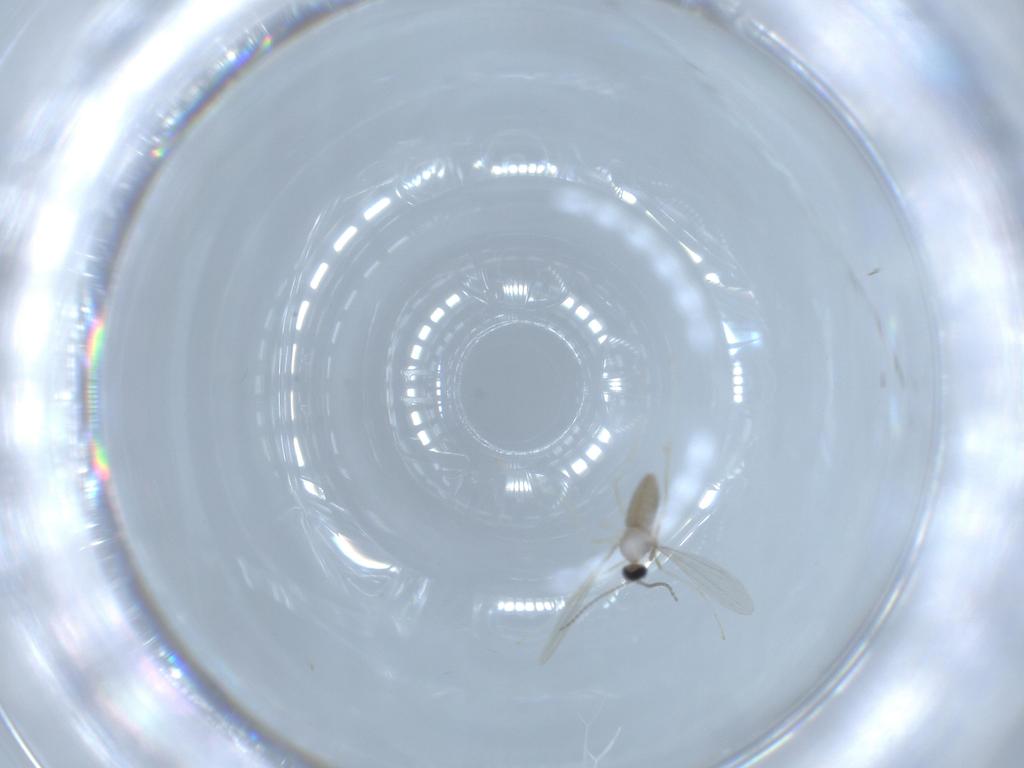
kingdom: Animalia
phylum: Arthropoda
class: Insecta
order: Diptera
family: Cecidomyiidae
